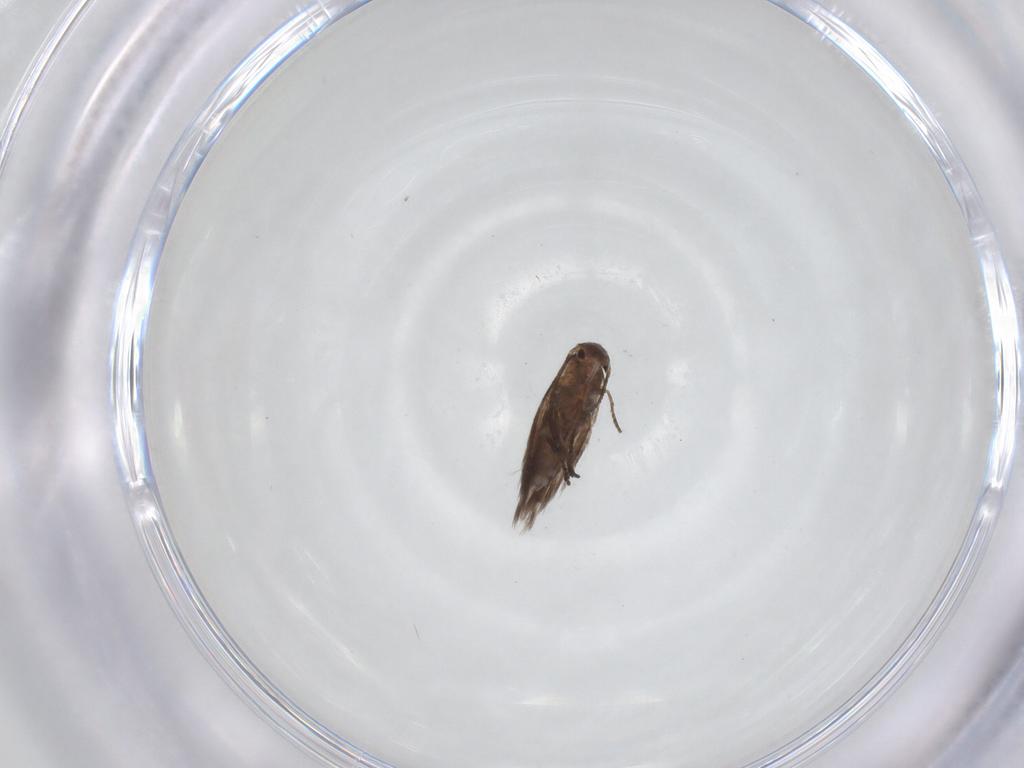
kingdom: Animalia
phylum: Arthropoda
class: Insecta
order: Lepidoptera
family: Lyonetiidae
